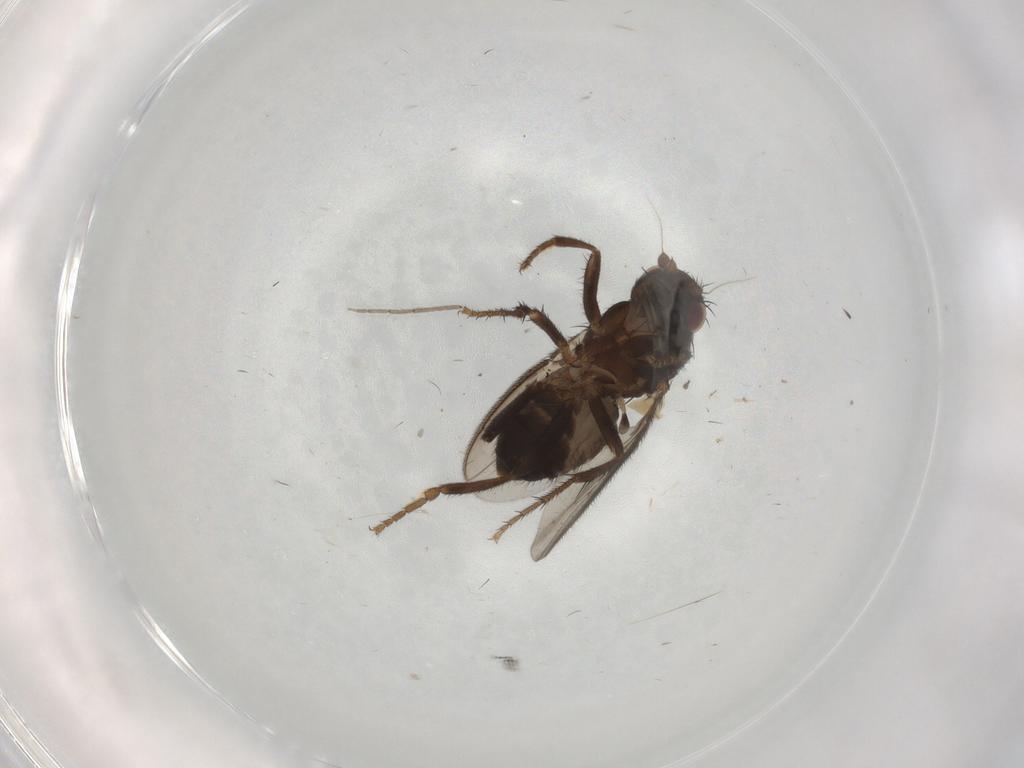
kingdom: Animalia
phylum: Arthropoda
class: Insecta
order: Diptera
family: Sphaeroceridae
